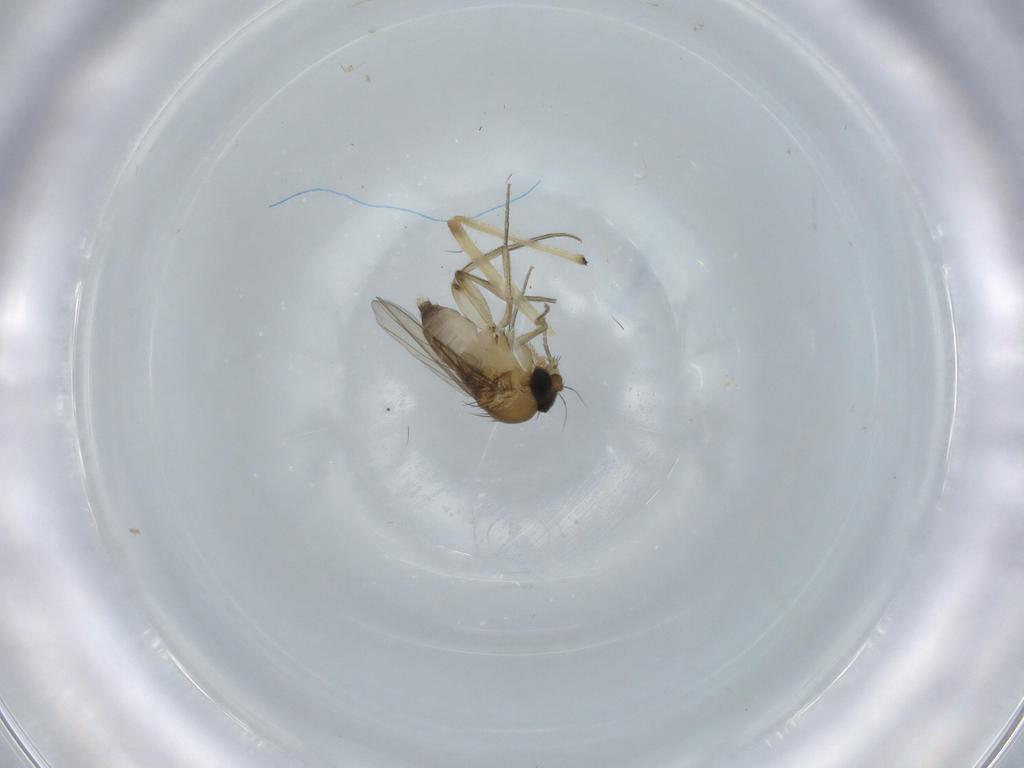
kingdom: Animalia
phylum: Arthropoda
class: Insecta
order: Diptera
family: Phoridae
